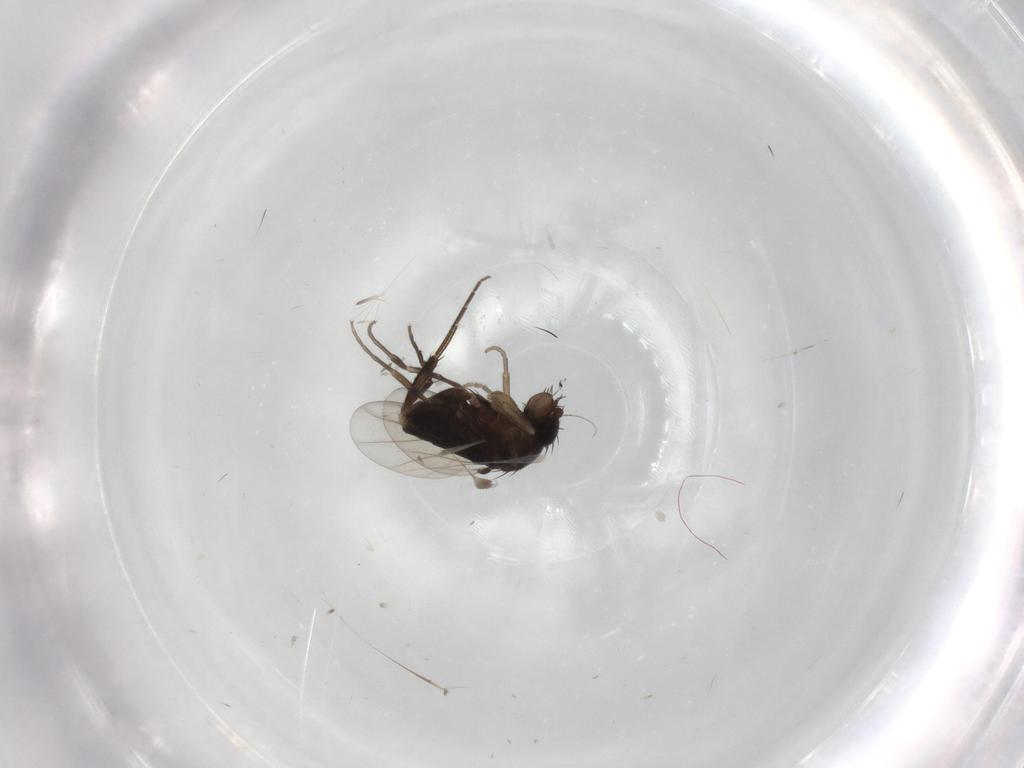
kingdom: Animalia
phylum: Arthropoda
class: Insecta
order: Diptera
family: Phoridae
